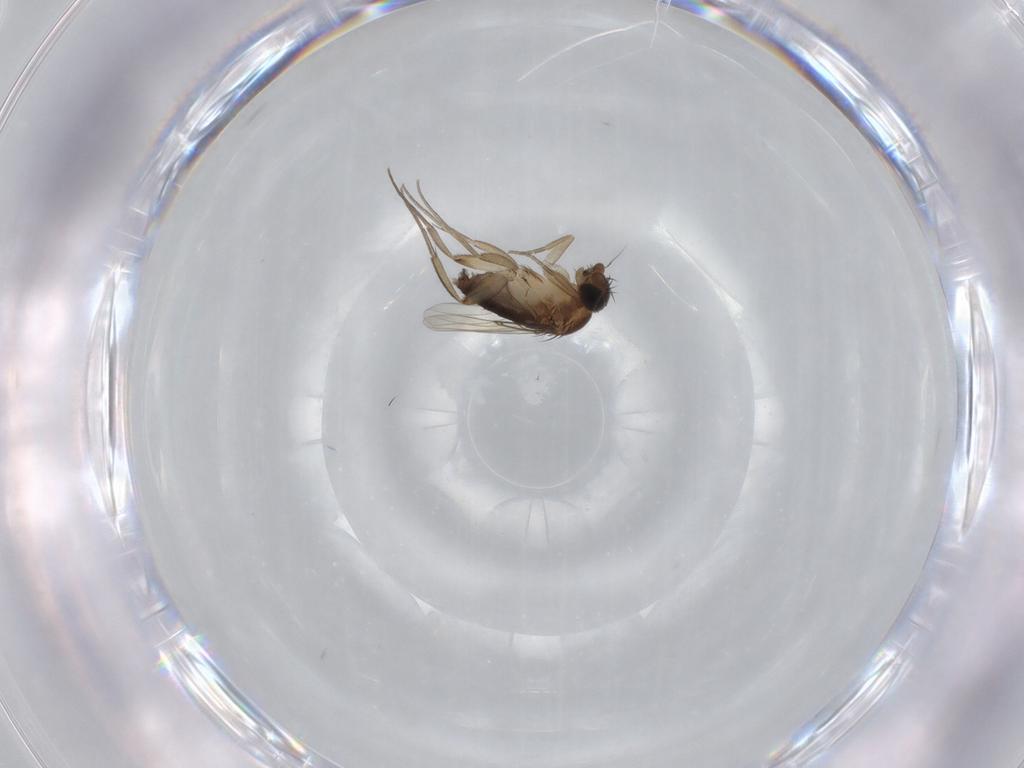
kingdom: Animalia
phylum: Arthropoda
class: Insecta
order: Diptera
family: Phoridae
